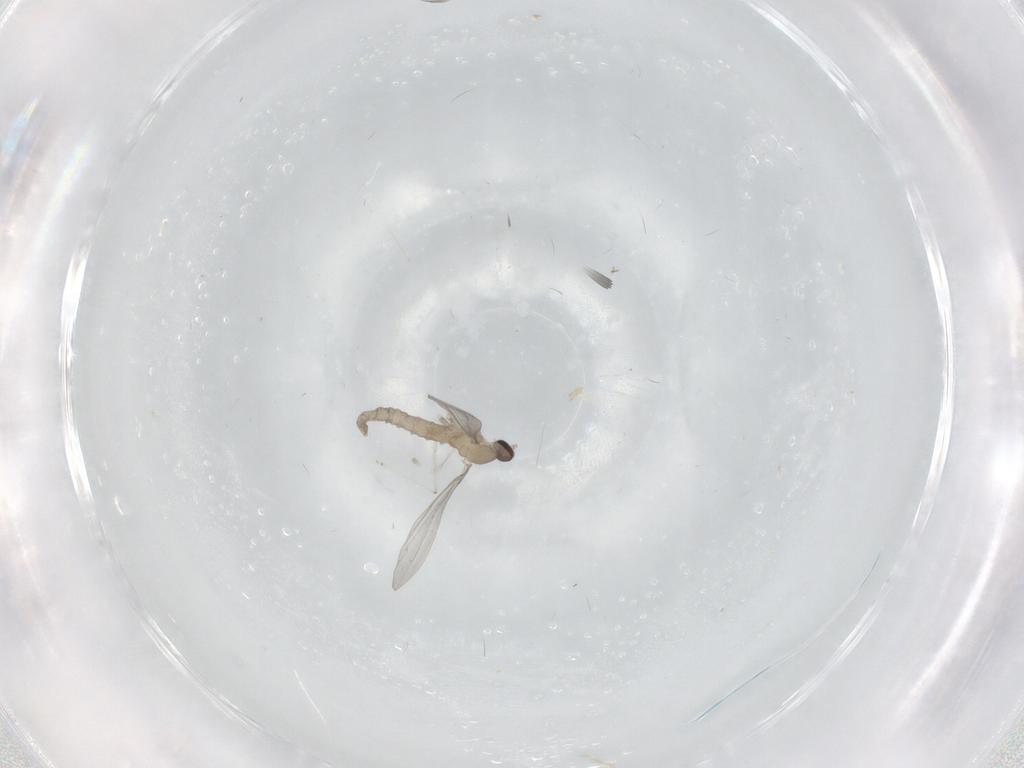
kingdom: Animalia
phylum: Arthropoda
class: Insecta
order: Diptera
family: Cecidomyiidae
